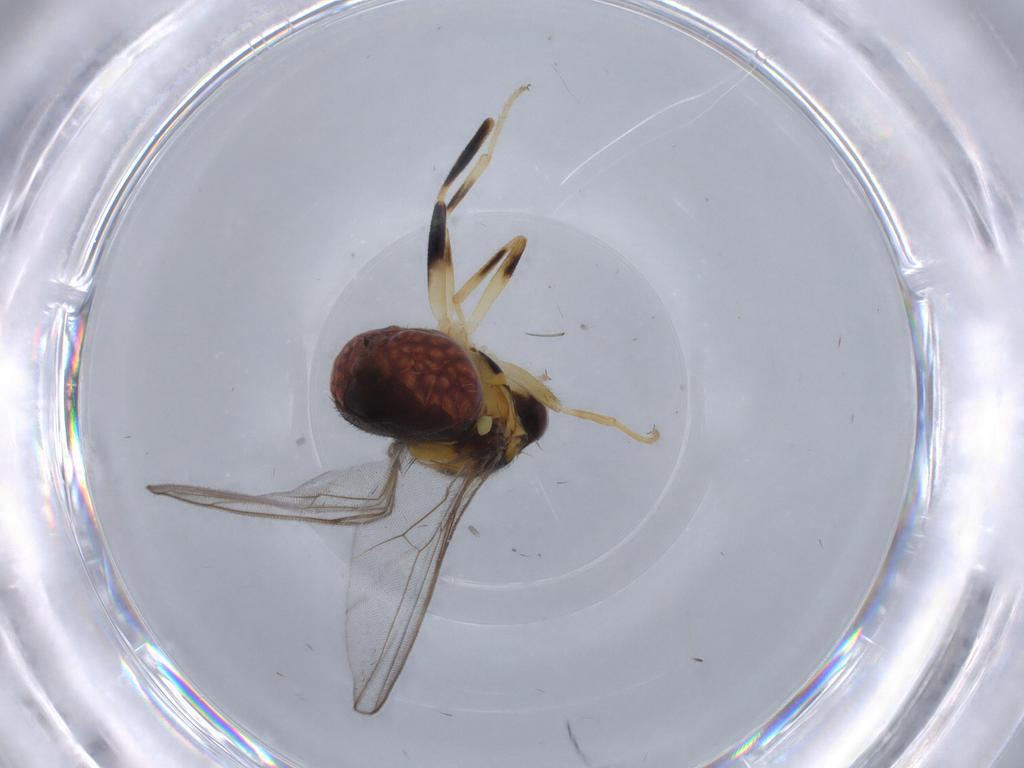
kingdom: Animalia
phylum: Arthropoda
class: Insecta
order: Diptera
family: Chloropidae
